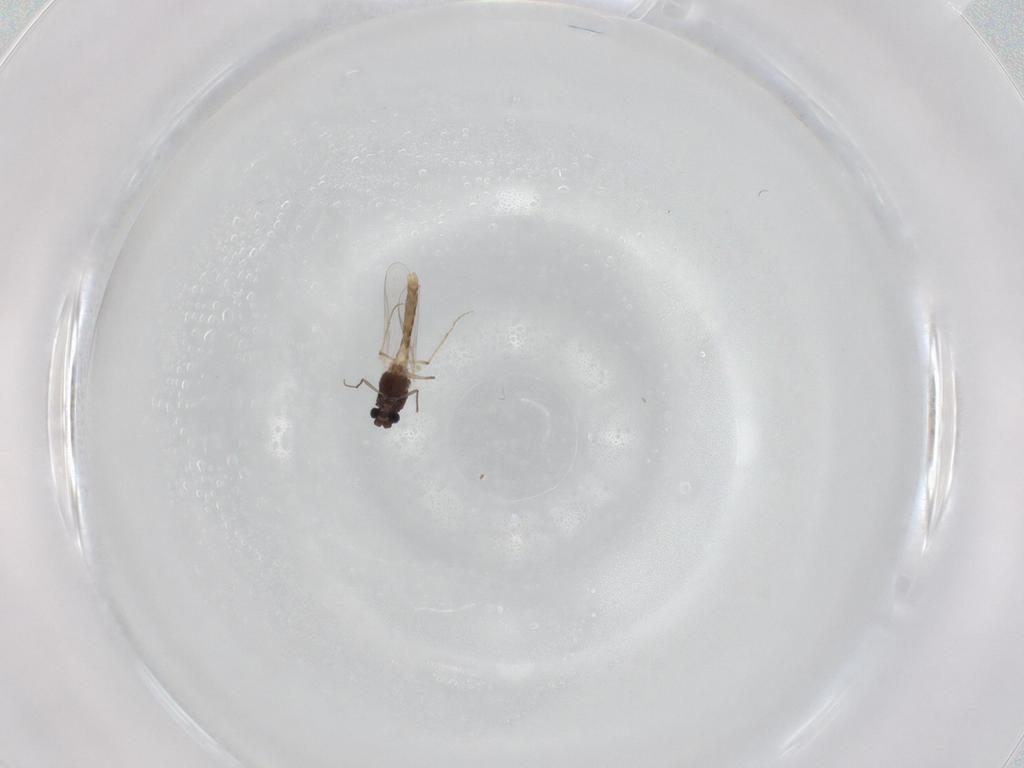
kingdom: Animalia
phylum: Arthropoda
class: Insecta
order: Diptera
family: Chironomidae
